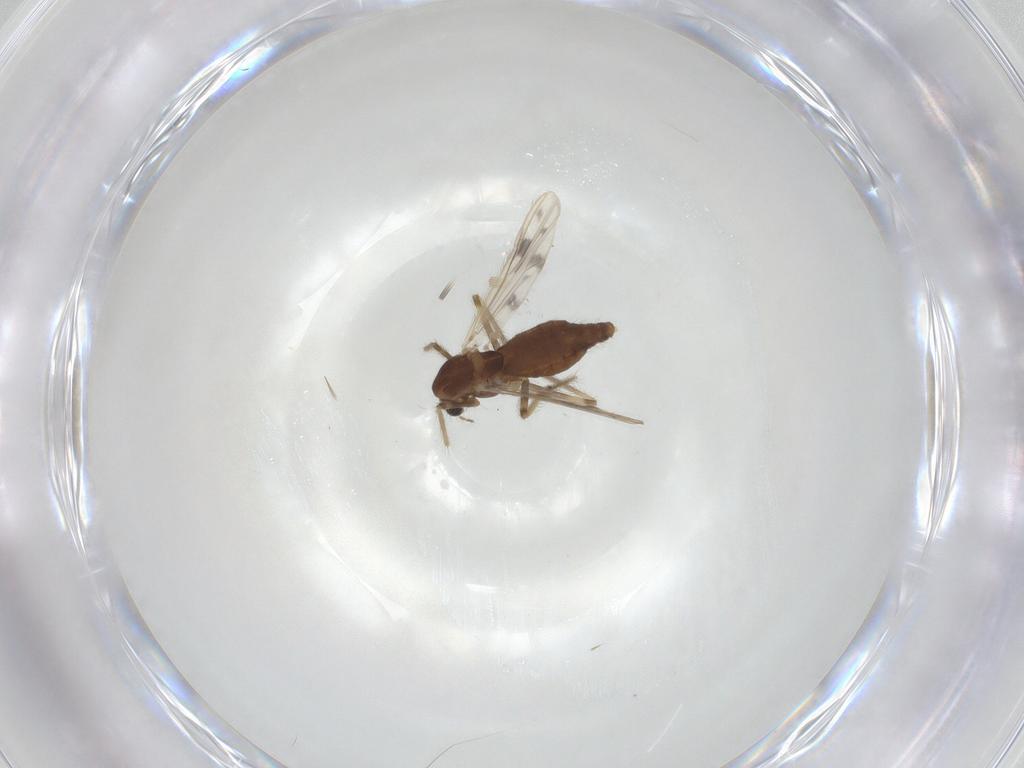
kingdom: Animalia
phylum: Arthropoda
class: Insecta
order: Diptera
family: Chironomidae
